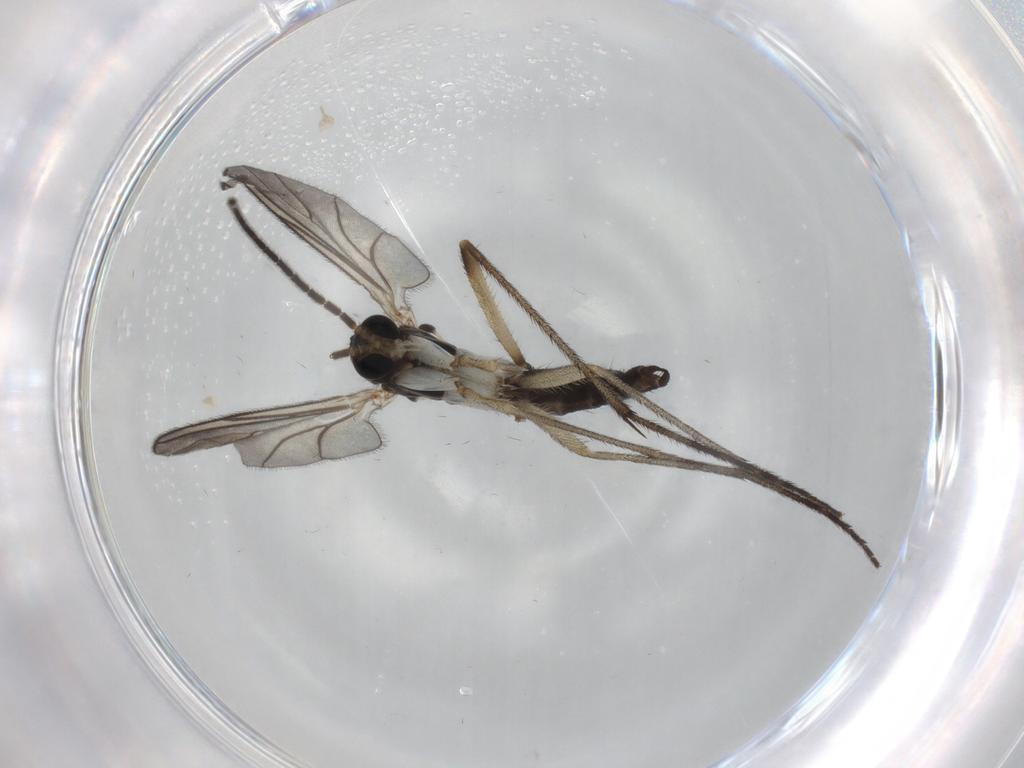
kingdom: Animalia
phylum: Arthropoda
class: Insecta
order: Diptera
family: Sciaridae
